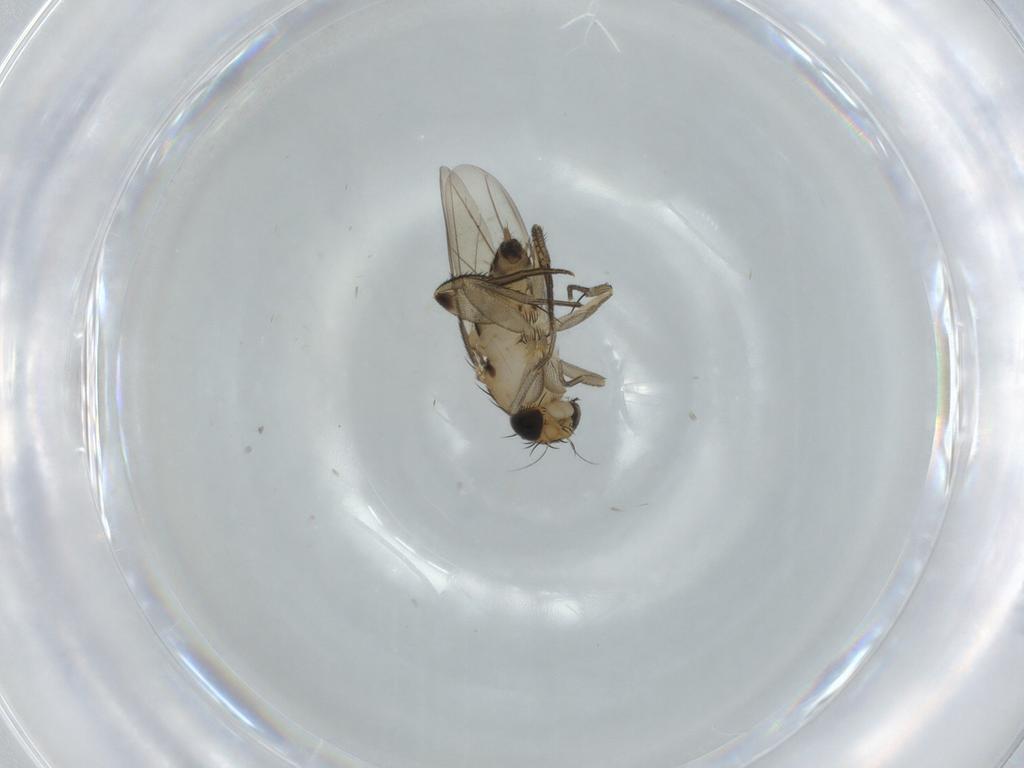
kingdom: Animalia
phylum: Arthropoda
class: Insecta
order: Diptera
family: Phoridae
